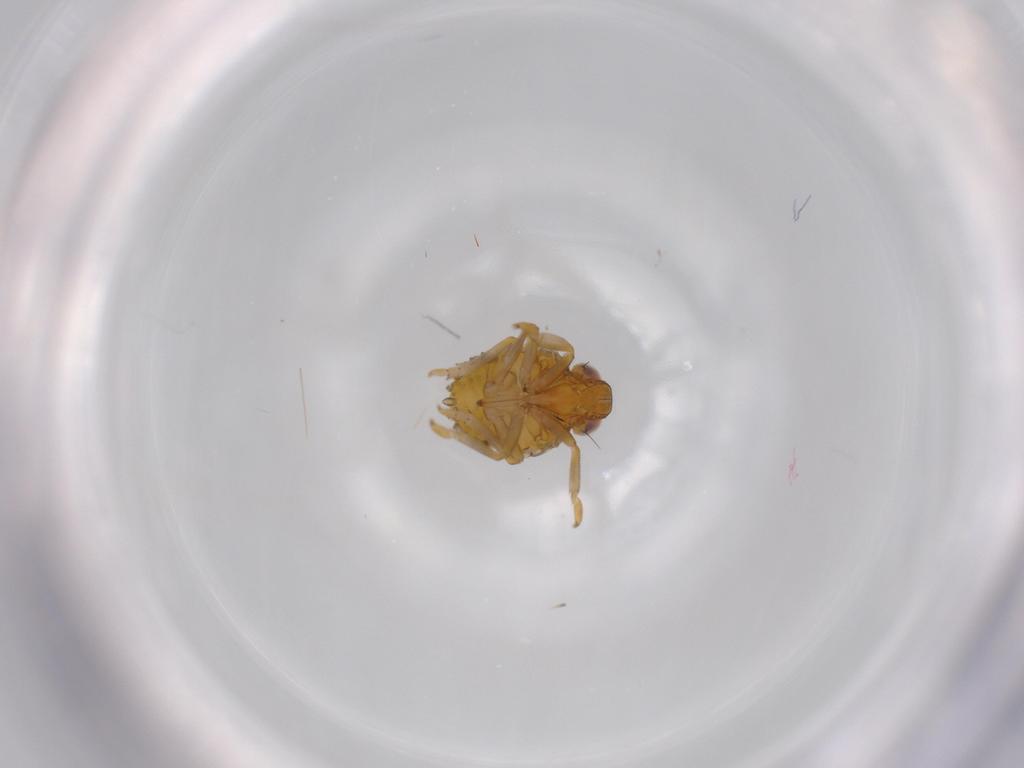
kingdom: Animalia
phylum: Arthropoda
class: Insecta
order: Hemiptera
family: Issidae
